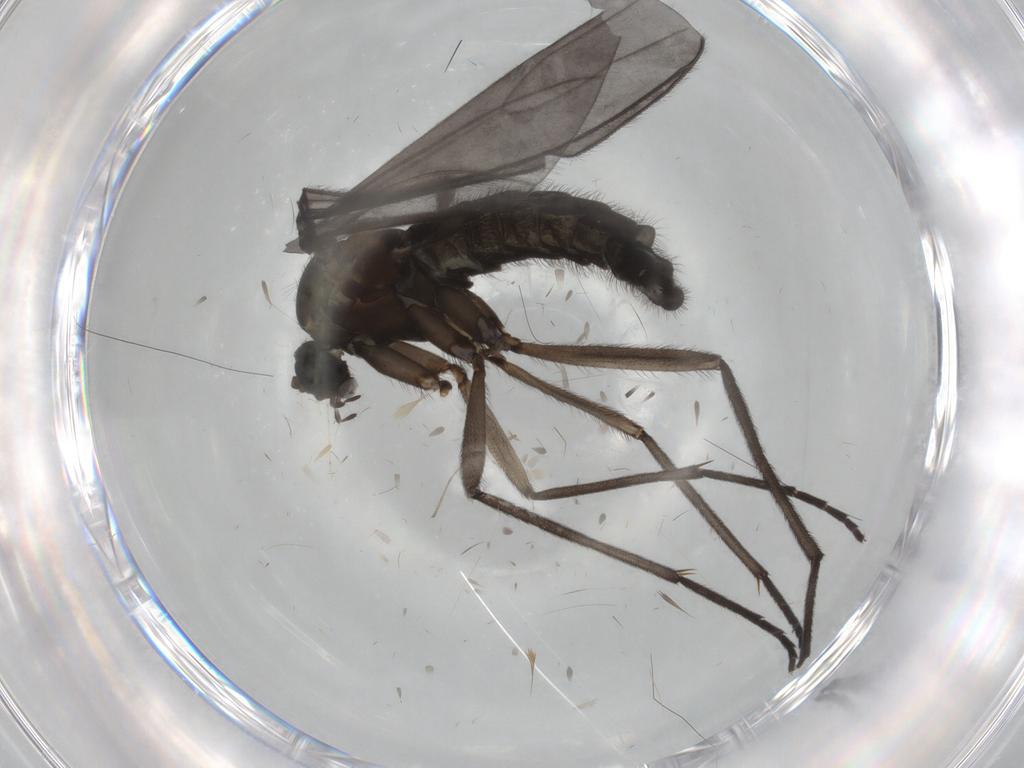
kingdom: Animalia
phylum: Arthropoda
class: Insecta
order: Diptera
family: Sciaridae
